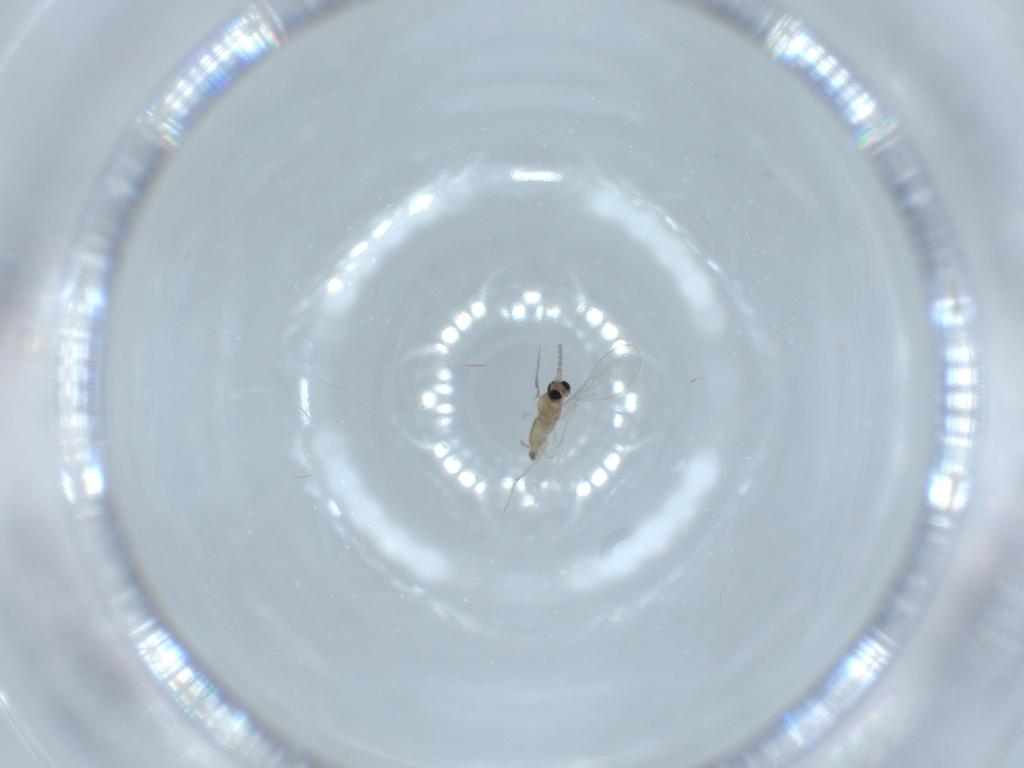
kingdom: Animalia
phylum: Arthropoda
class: Insecta
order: Diptera
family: Cecidomyiidae
